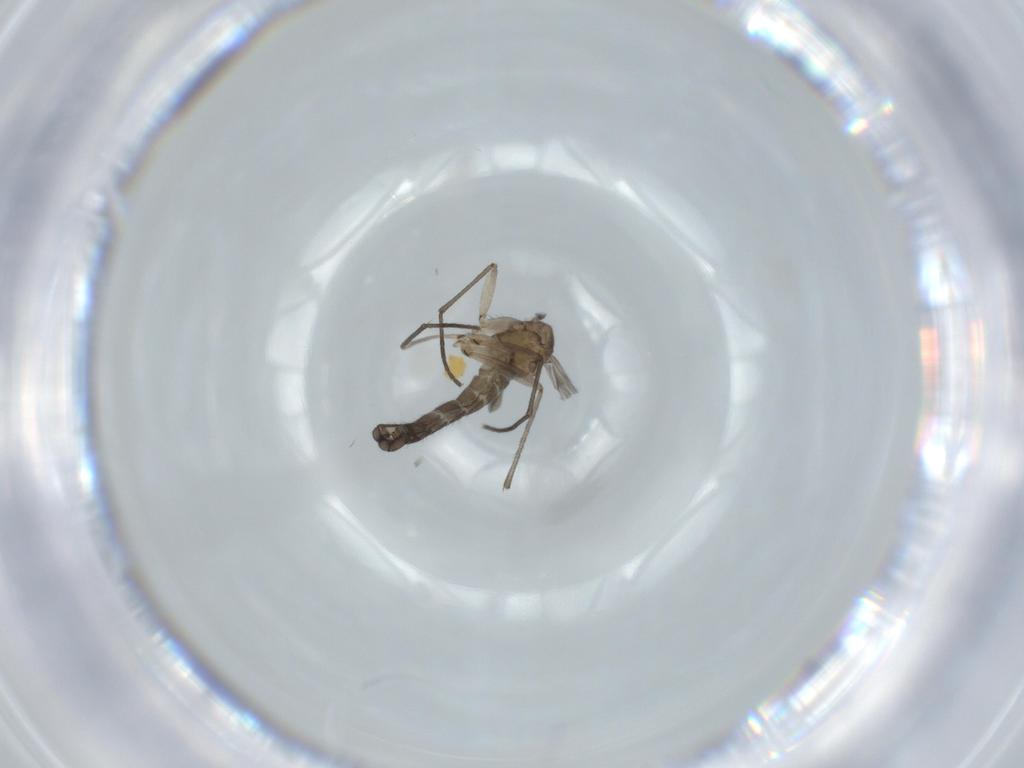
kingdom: Animalia
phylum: Arthropoda
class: Insecta
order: Diptera
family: Sciaridae
